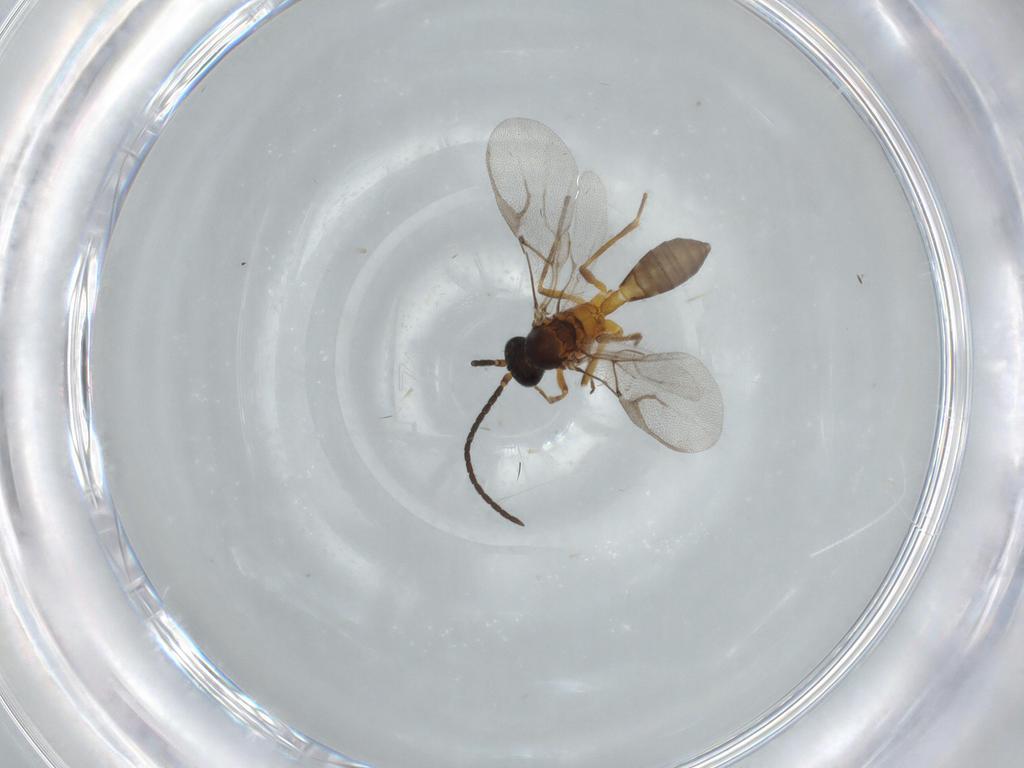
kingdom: Animalia
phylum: Arthropoda
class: Insecta
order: Hymenoptera
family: Braconidae
